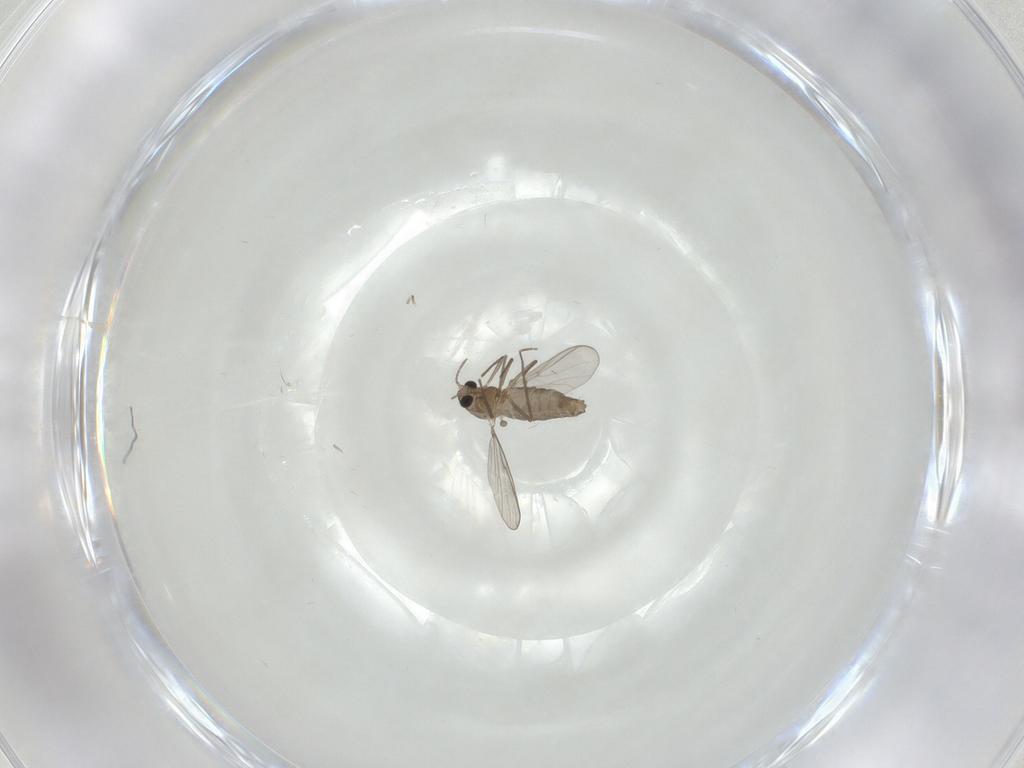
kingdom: Animalia
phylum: Arthropoda
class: Insecta
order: Diptera
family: Chironomidae
